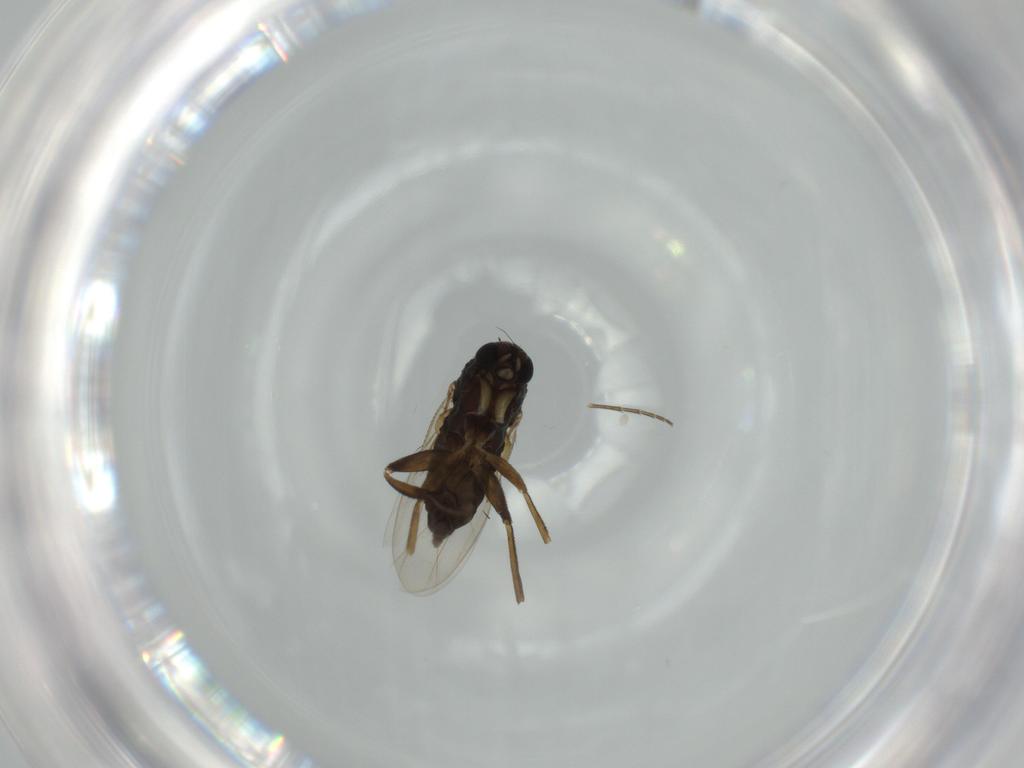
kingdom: Animalia
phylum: Arthropoda
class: Insecta
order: Diptera
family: Phoridae
